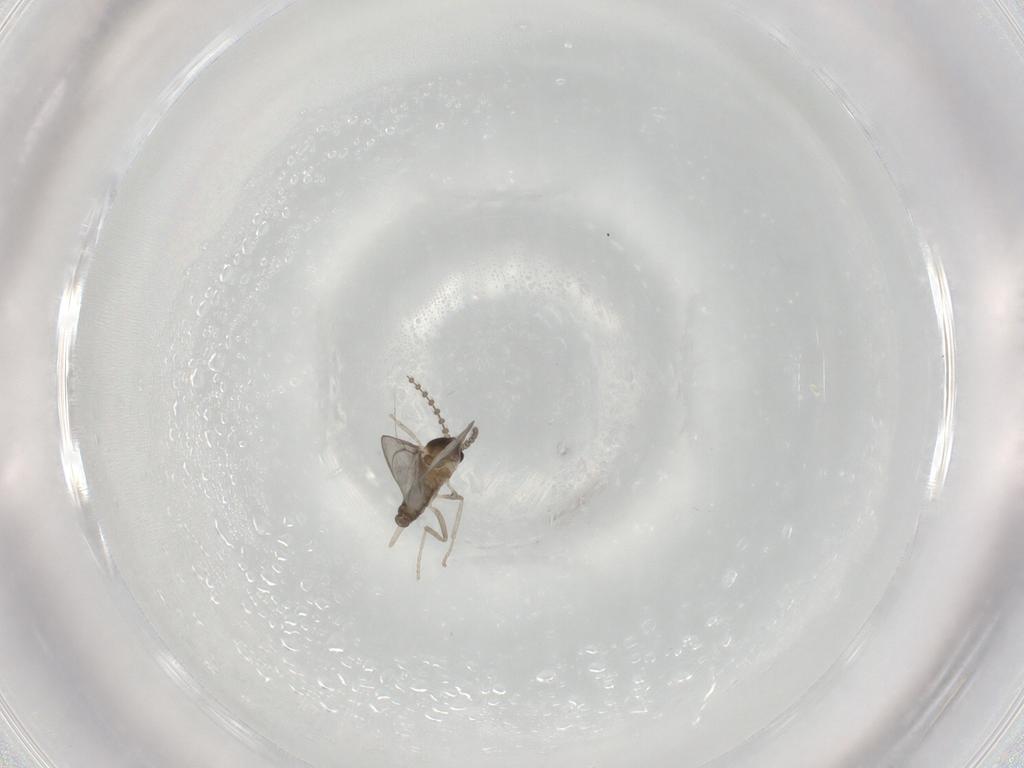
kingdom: Animalia
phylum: Arthropoda
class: Insecta
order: Diptera
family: Cecidomyiidae
